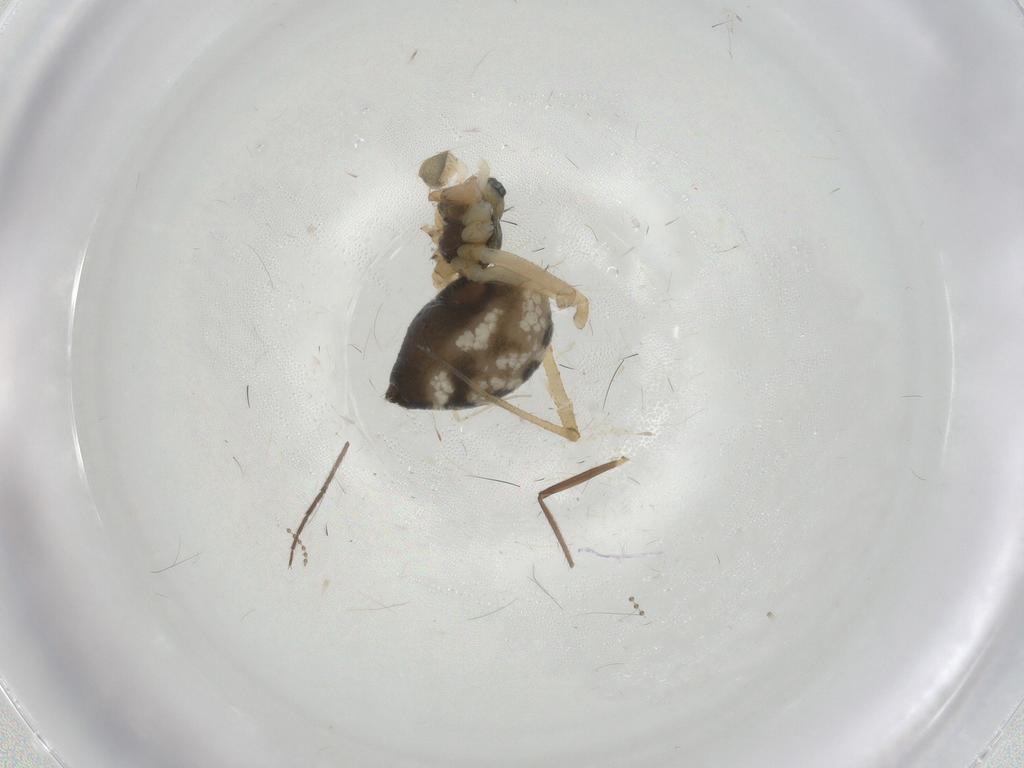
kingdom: Animalia
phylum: Arthropoda
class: Arachnida
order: Araneae
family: Linyphiidae
